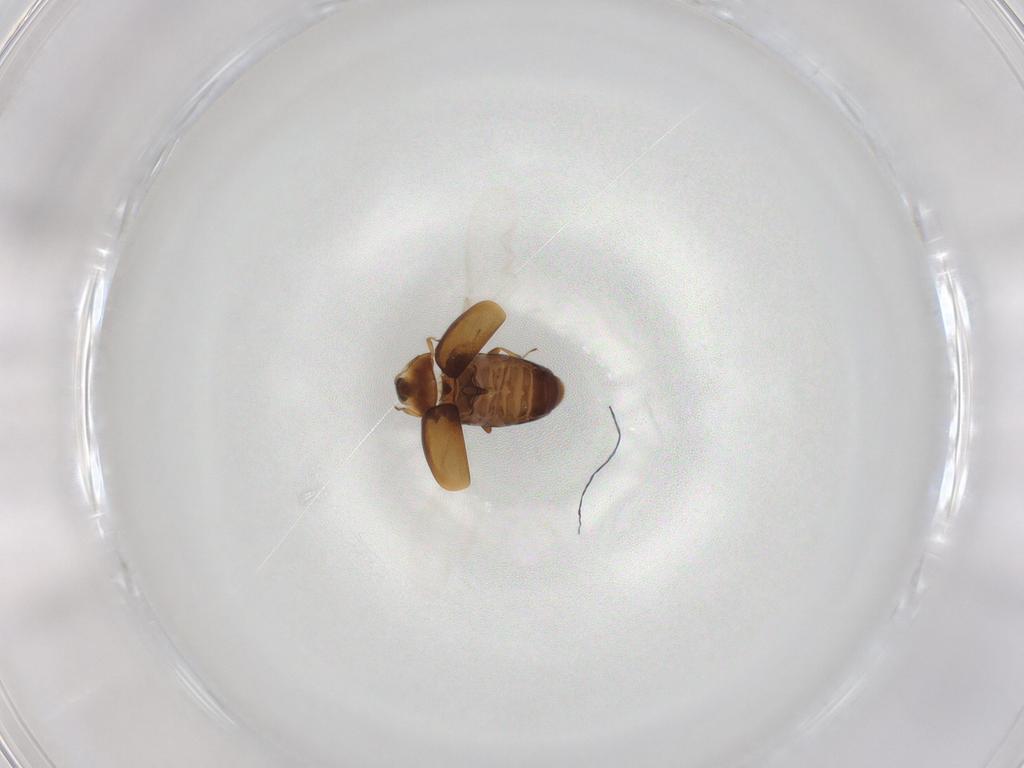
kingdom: Animalia
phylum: Arthropoda
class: Insecta
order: Coleoptera
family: Corylophidae
